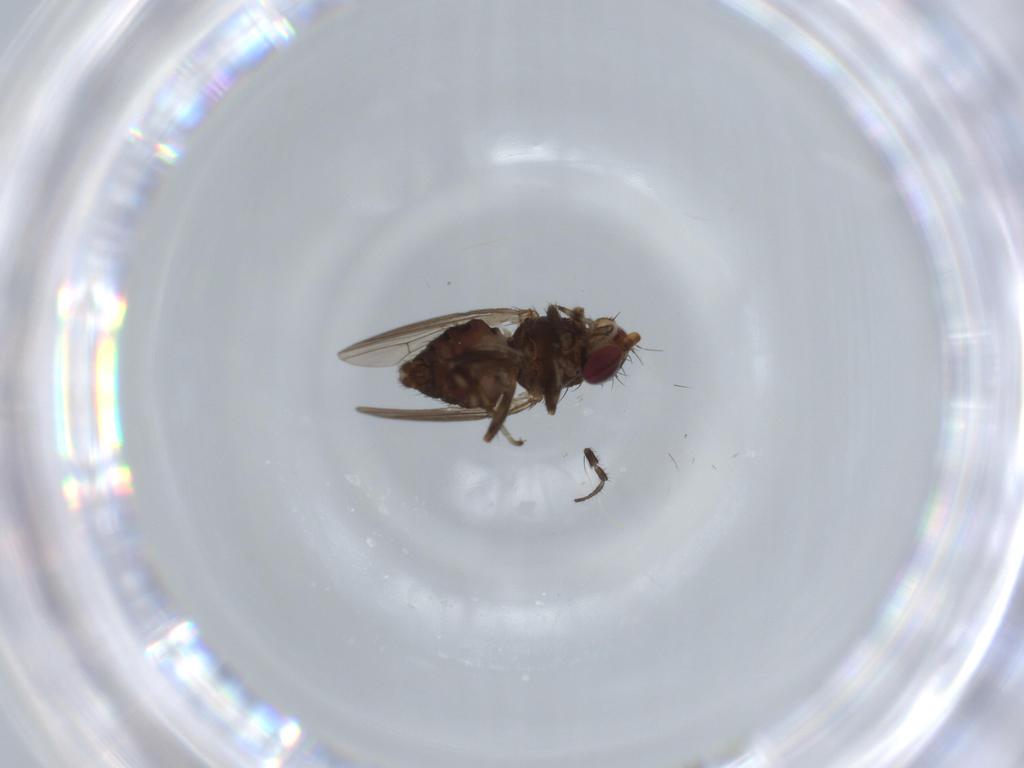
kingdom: Animalia
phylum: Arthropoda
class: Insecta
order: Diptera
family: Heleomyzidae
